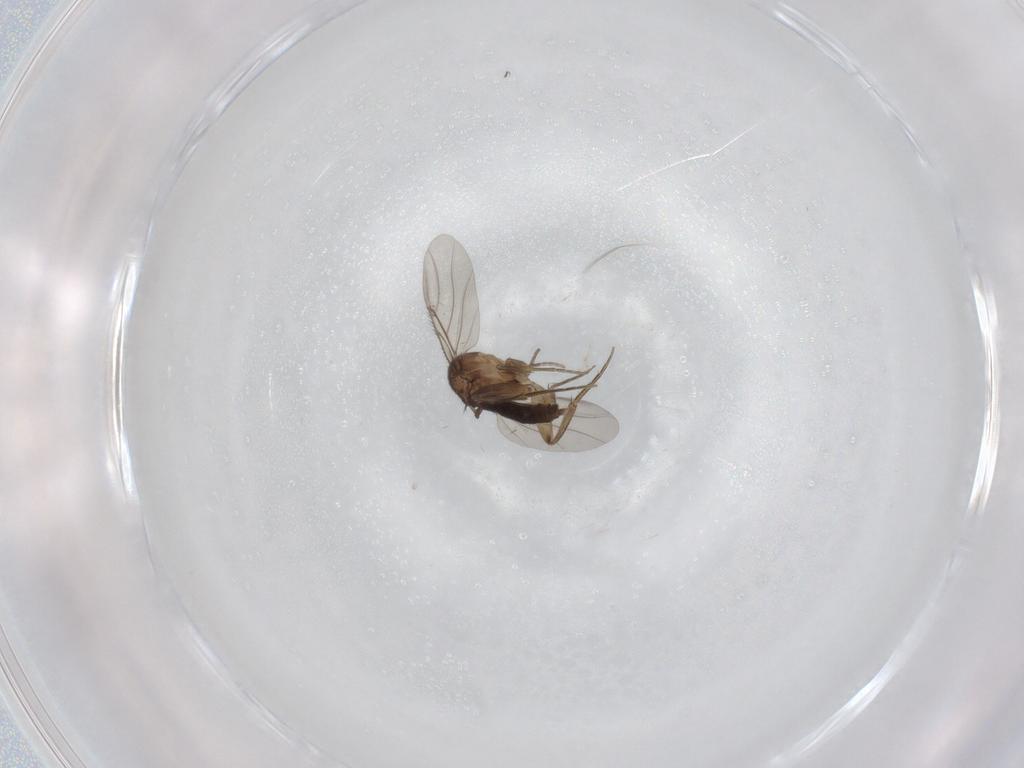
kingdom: Animalia
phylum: Arthropoda
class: Insecta
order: Diptera
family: Phoridae
